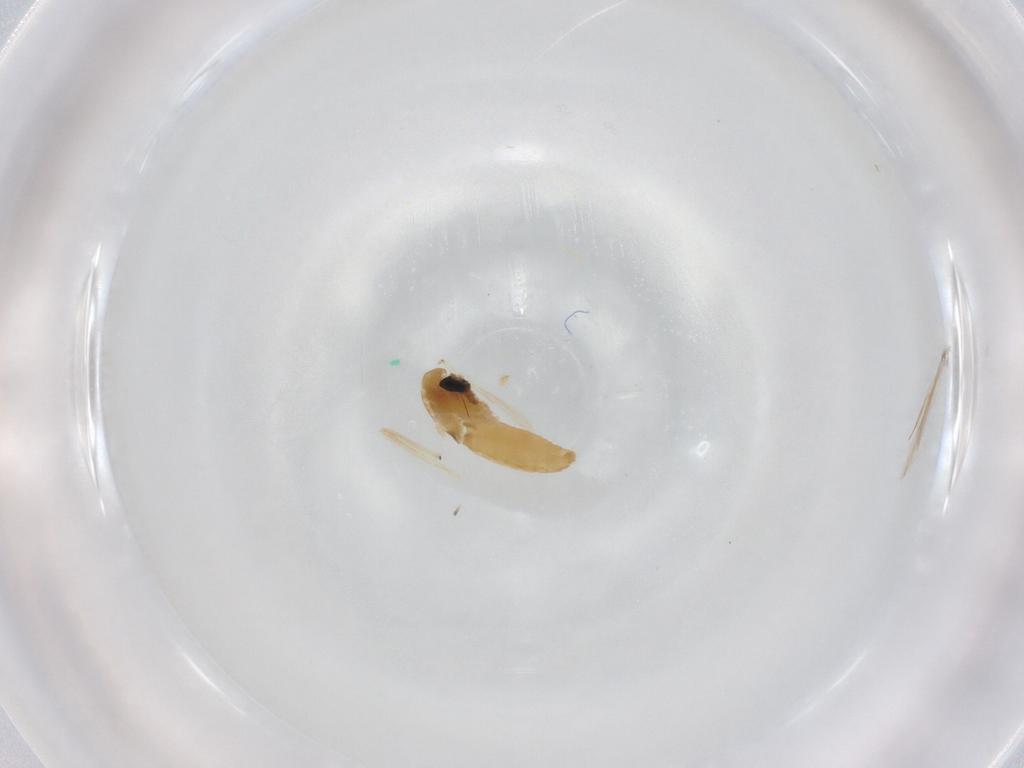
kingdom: Animalia
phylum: Arthropoda
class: Insecta
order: Diptera
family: Chironomidae
